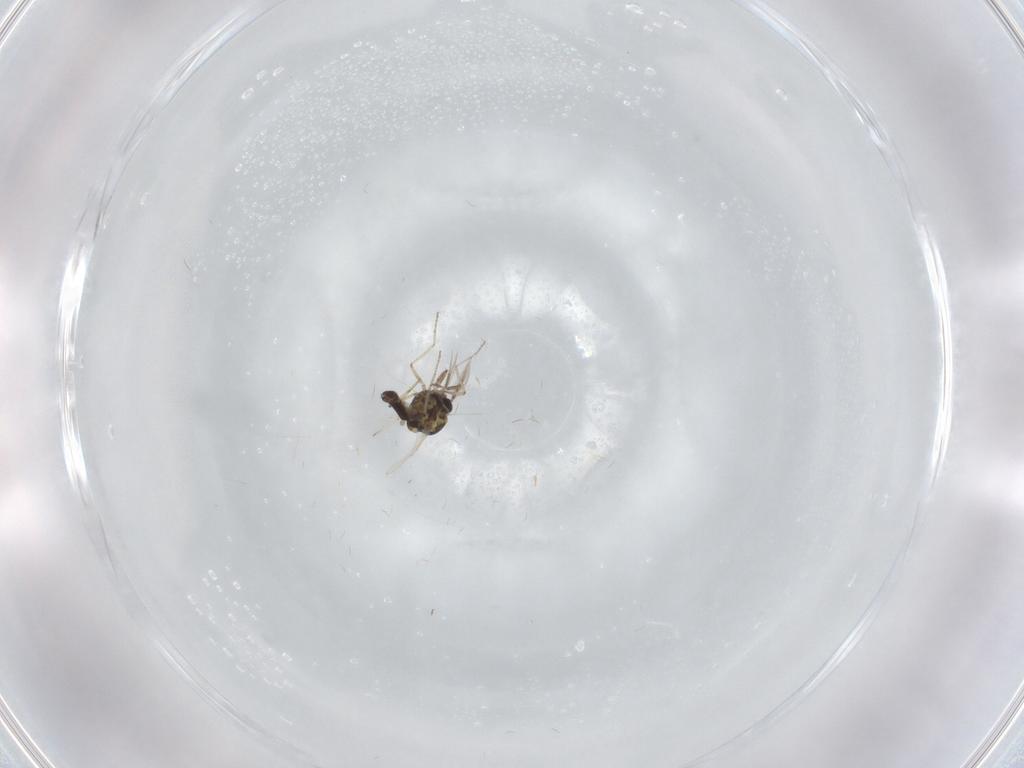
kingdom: Animalia
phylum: Arthropoda
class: Insecta
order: Diptera
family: Ceratopogonidae
